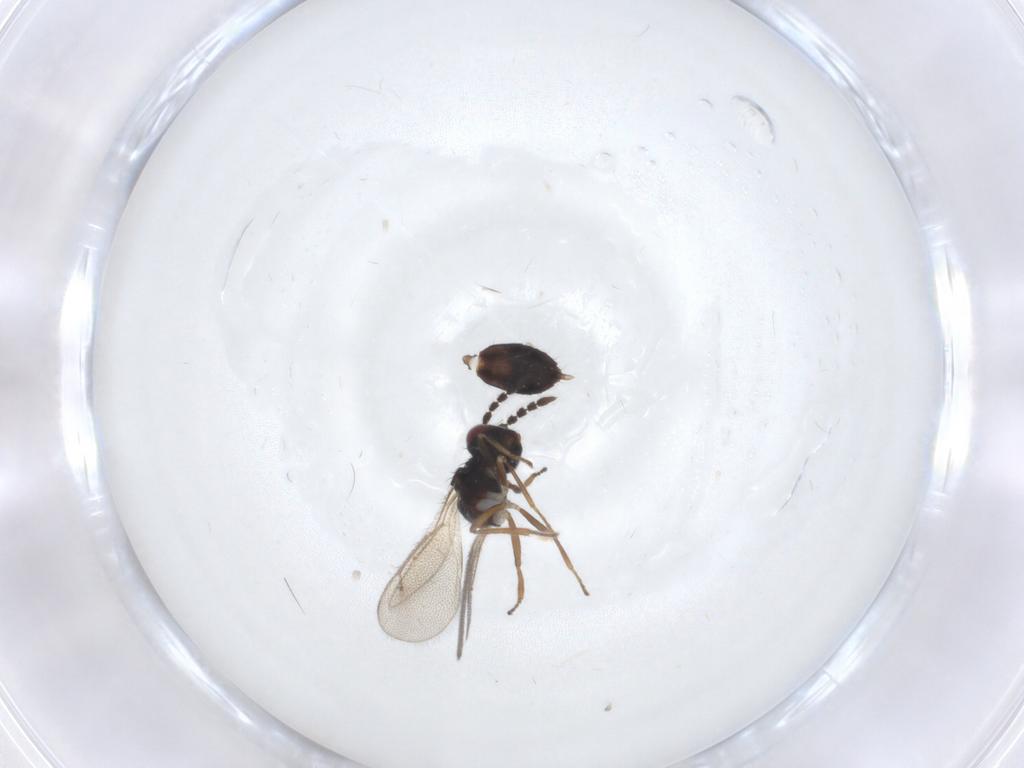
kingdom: Animalia
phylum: Arthropoda
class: Insecta
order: Hymenoptera
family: Eulophidae
